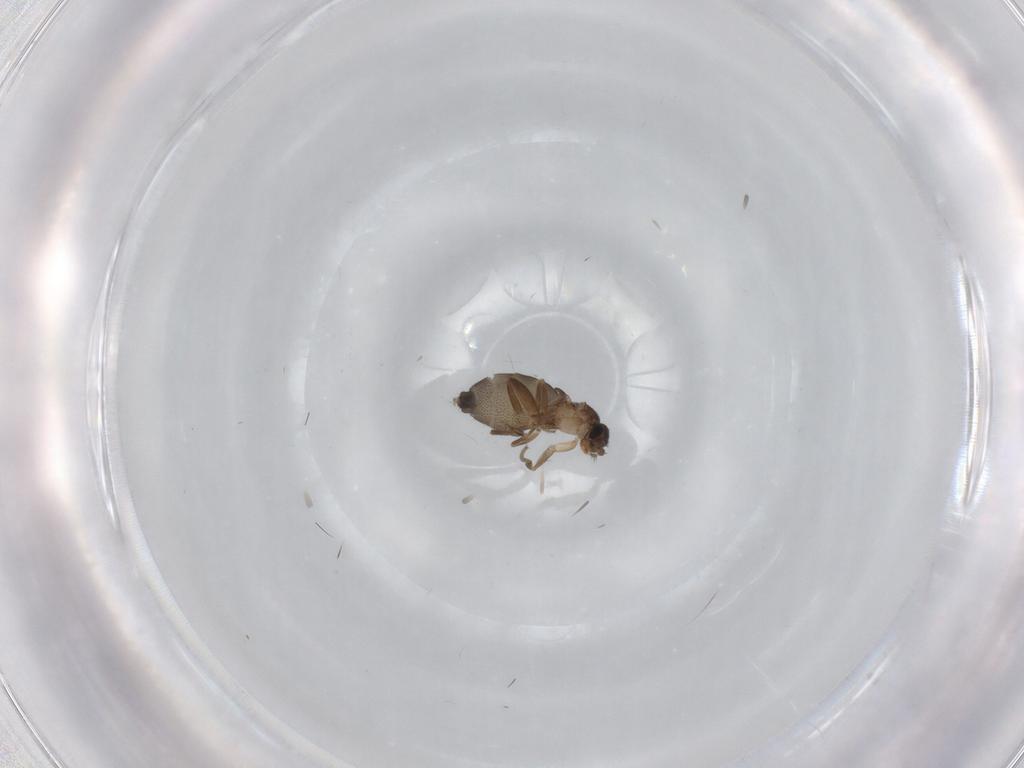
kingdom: Animalia
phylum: Arthropoda
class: Insecta
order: Diptera
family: Phoridae
